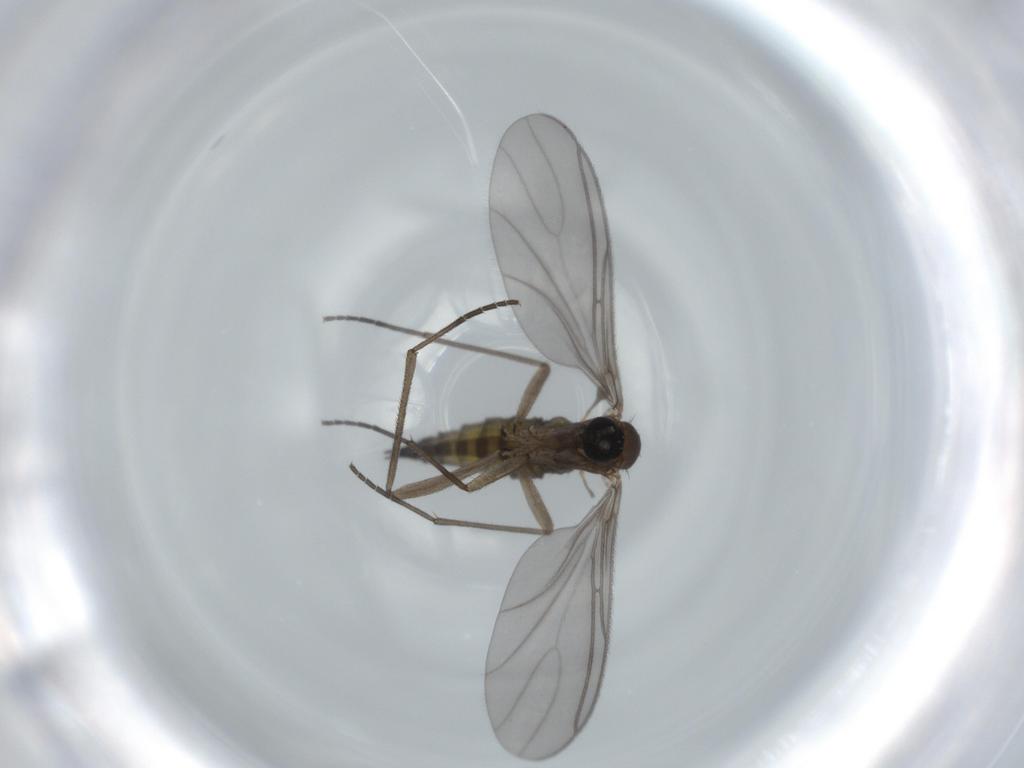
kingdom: Animalia
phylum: Arthropoda
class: Insecta
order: Diptera
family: Sciaridae
